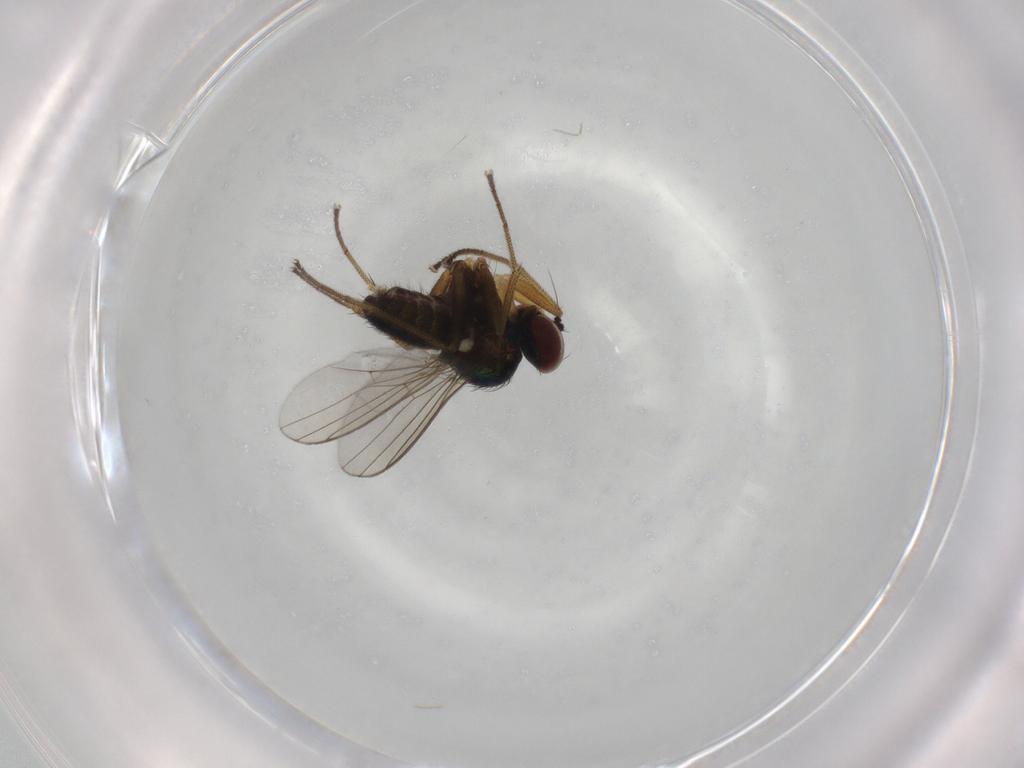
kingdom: Animalia
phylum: Arthropoda
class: Insecta
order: Diptera
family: Dolichopodidae
